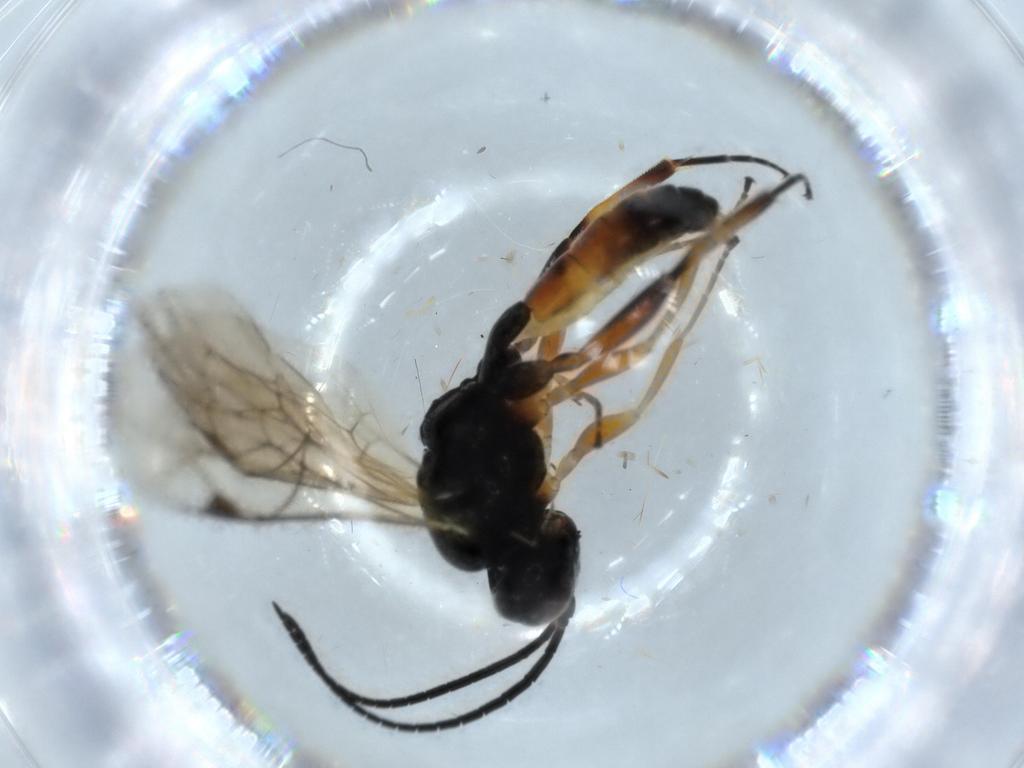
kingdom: Animalia
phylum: Arthropoda
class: Insecta
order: Hymenoptera
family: Ichneumonidae
